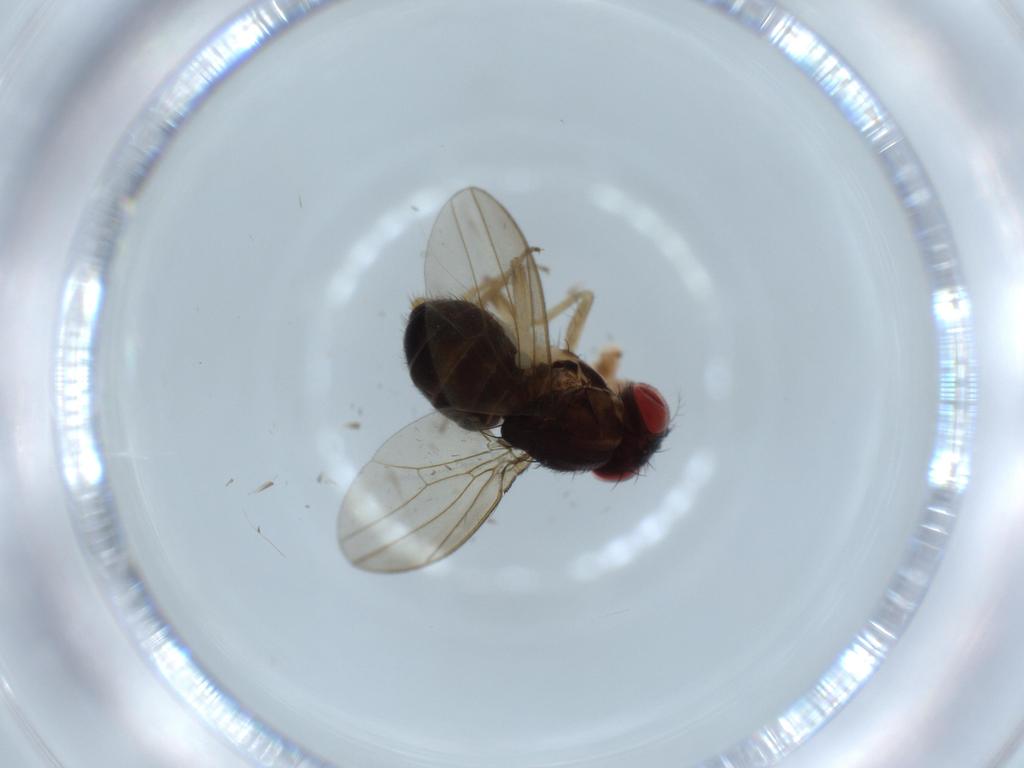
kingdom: Animalia
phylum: Arthropoda
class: Insecta
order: Diptera
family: Drosophilidae
